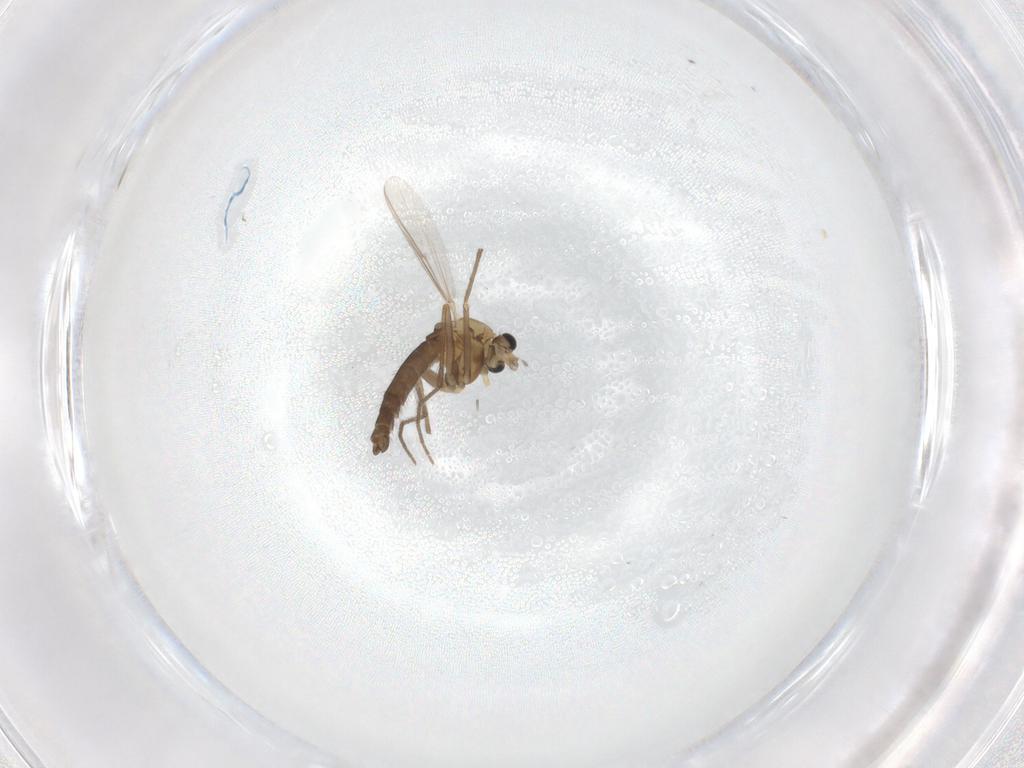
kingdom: Animalia
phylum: Arthropoda
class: Insecta
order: Diptera
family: Chironomidae
